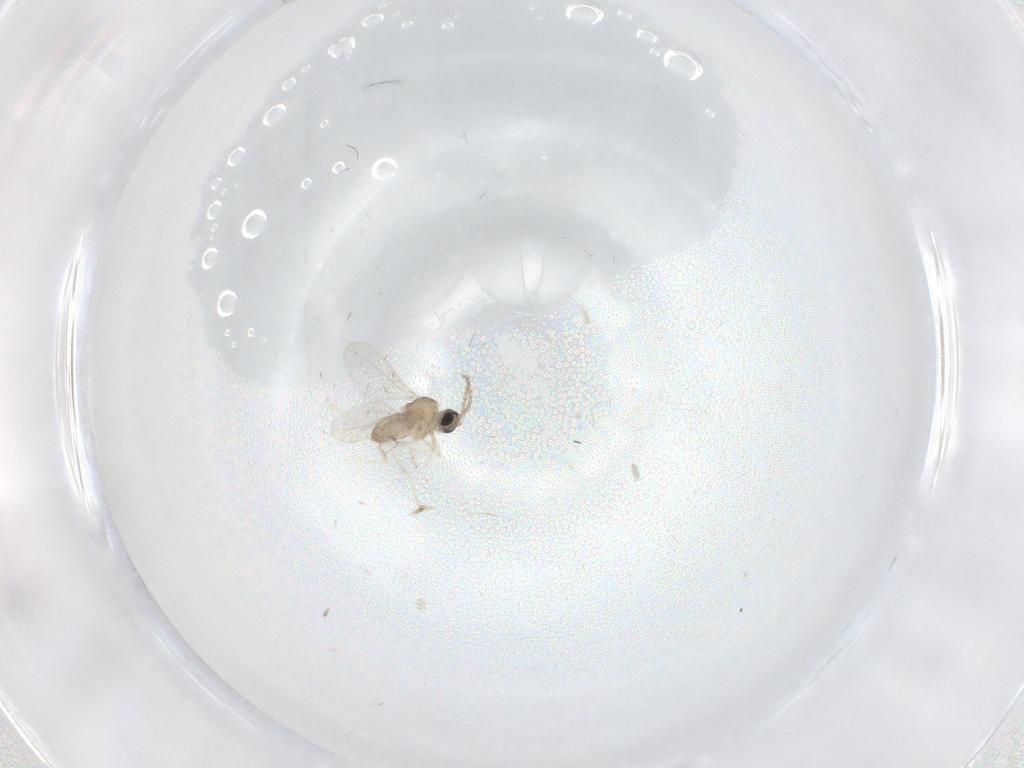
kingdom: Animalia
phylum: Arthropoda
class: Insecta
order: Diptera
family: Cecidomyiidae
